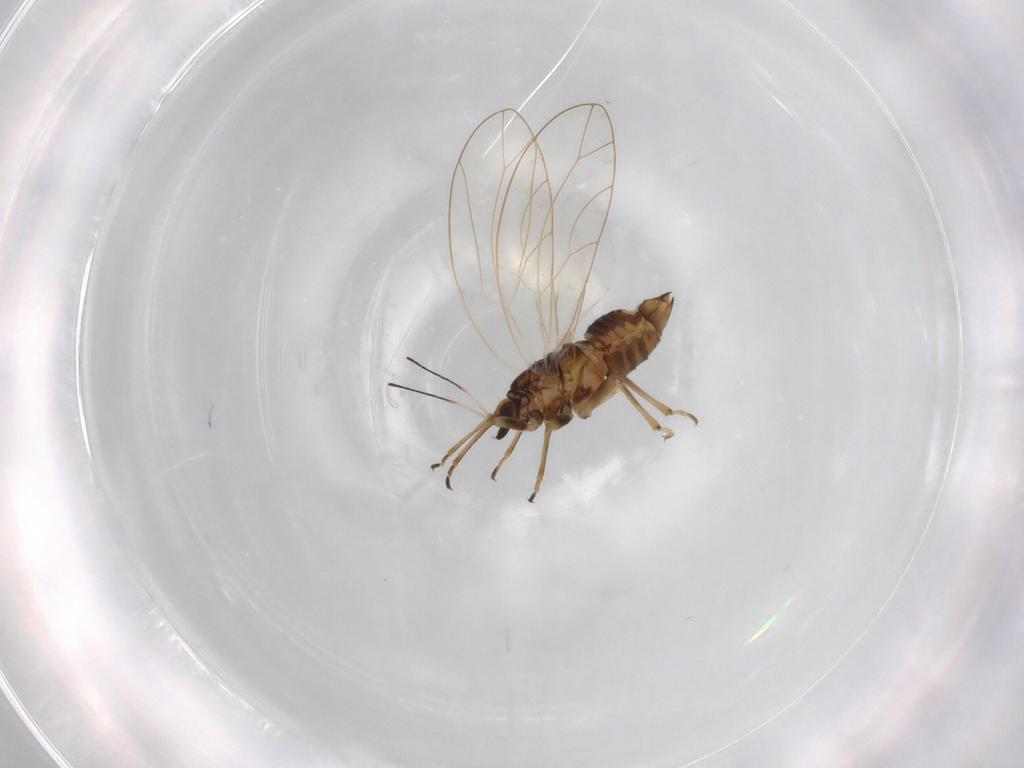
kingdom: Animalia
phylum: Arthropoda
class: Insecta
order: Hemiptera
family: Triozidae
